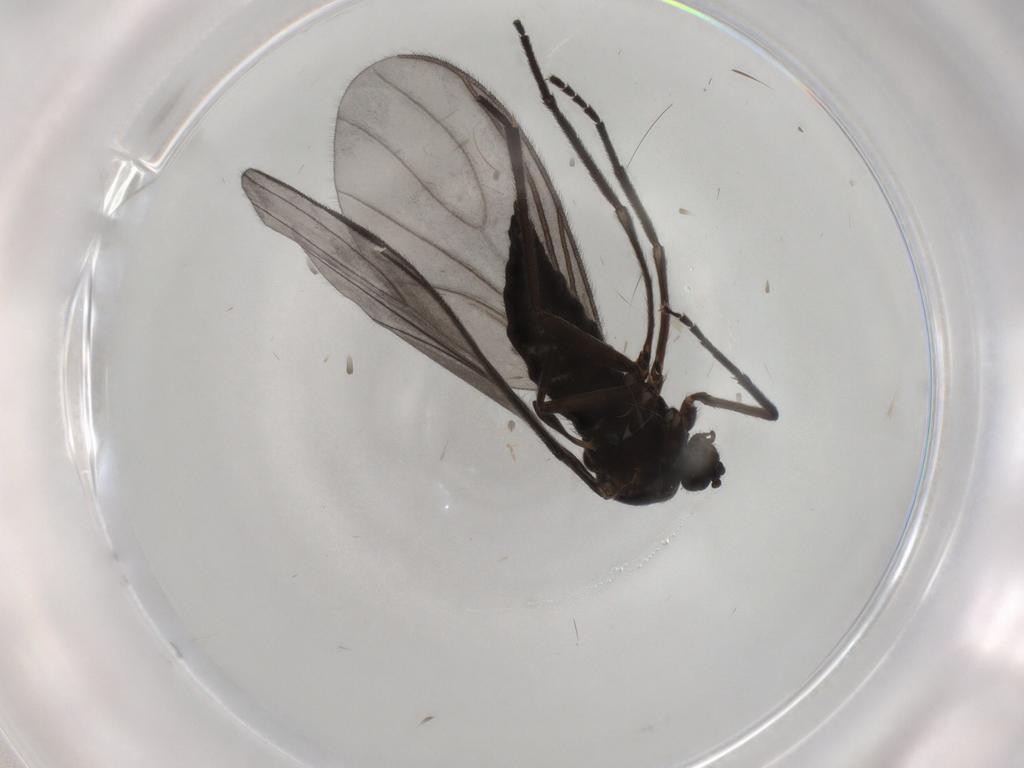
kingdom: Animalia
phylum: Arthropoda
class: Insecta
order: Diptera
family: Sciaridae
